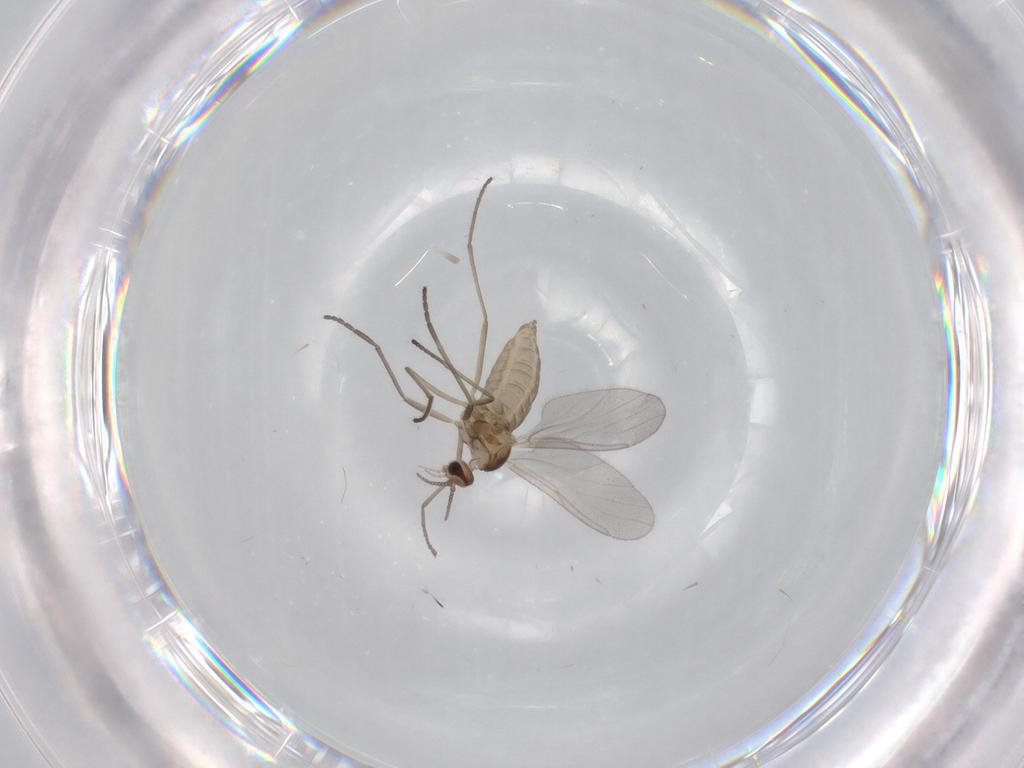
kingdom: Animalia
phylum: Arthropoda
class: Insecta
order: Diptera
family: Cecidomyiidae
